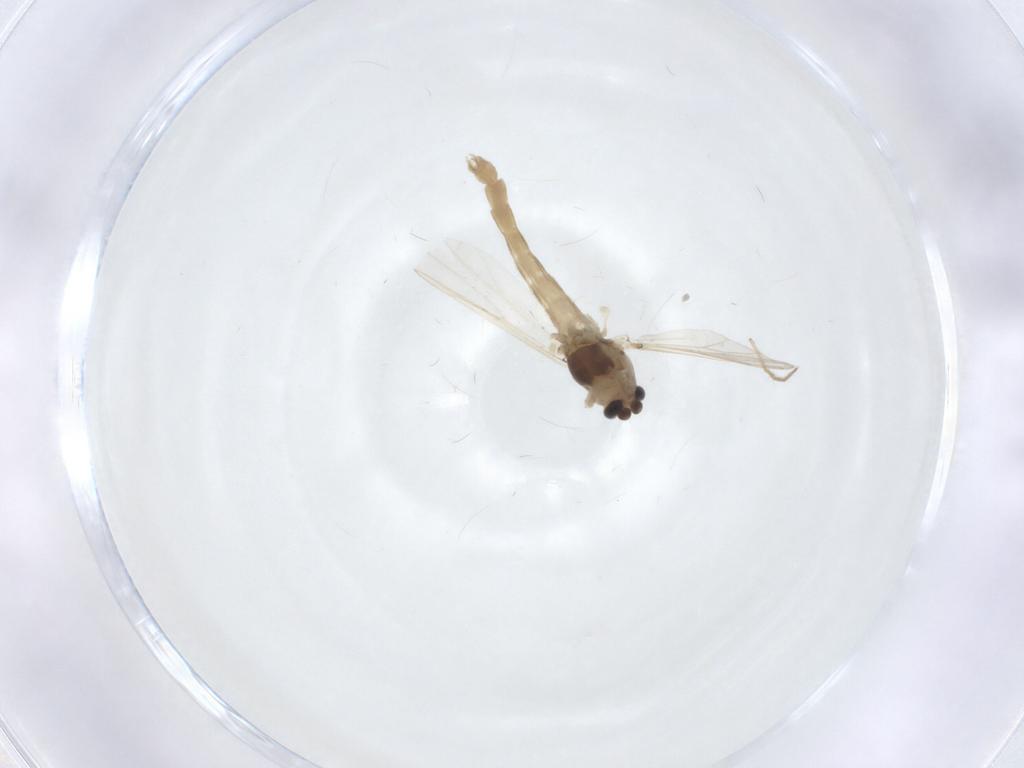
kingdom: Animalia
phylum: Arthropoda
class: Insecta
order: Diptera
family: Chironomidae
